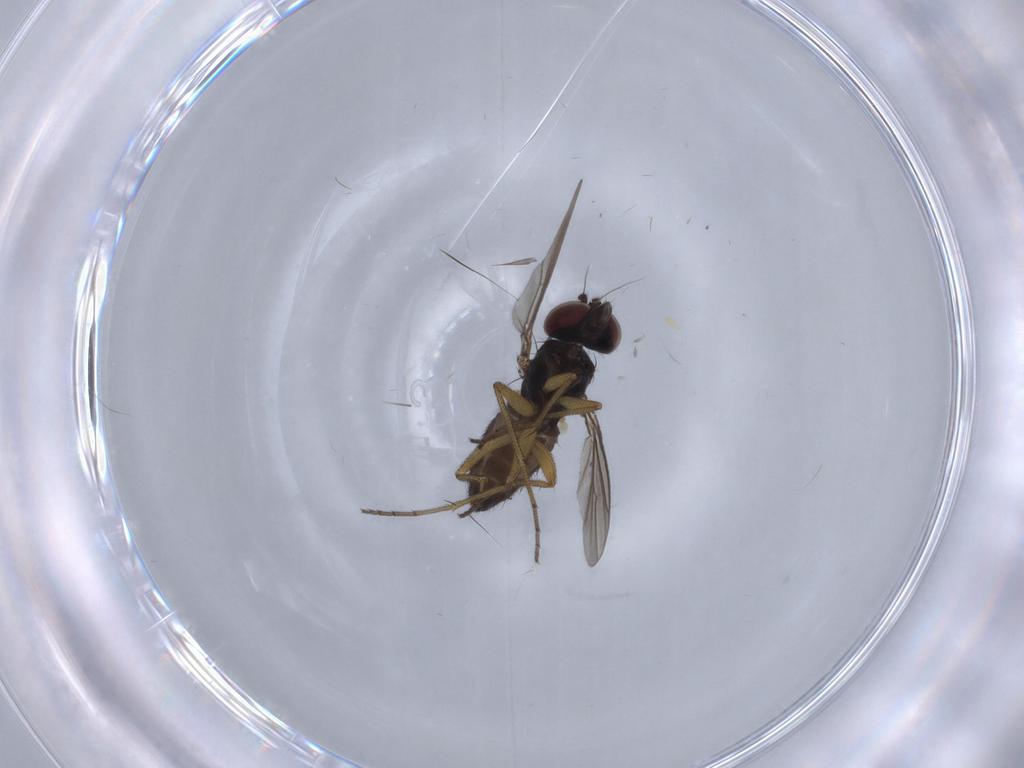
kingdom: Animalia
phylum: Arthropoda
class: Insecta
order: Diptera
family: Dolichopodidae
